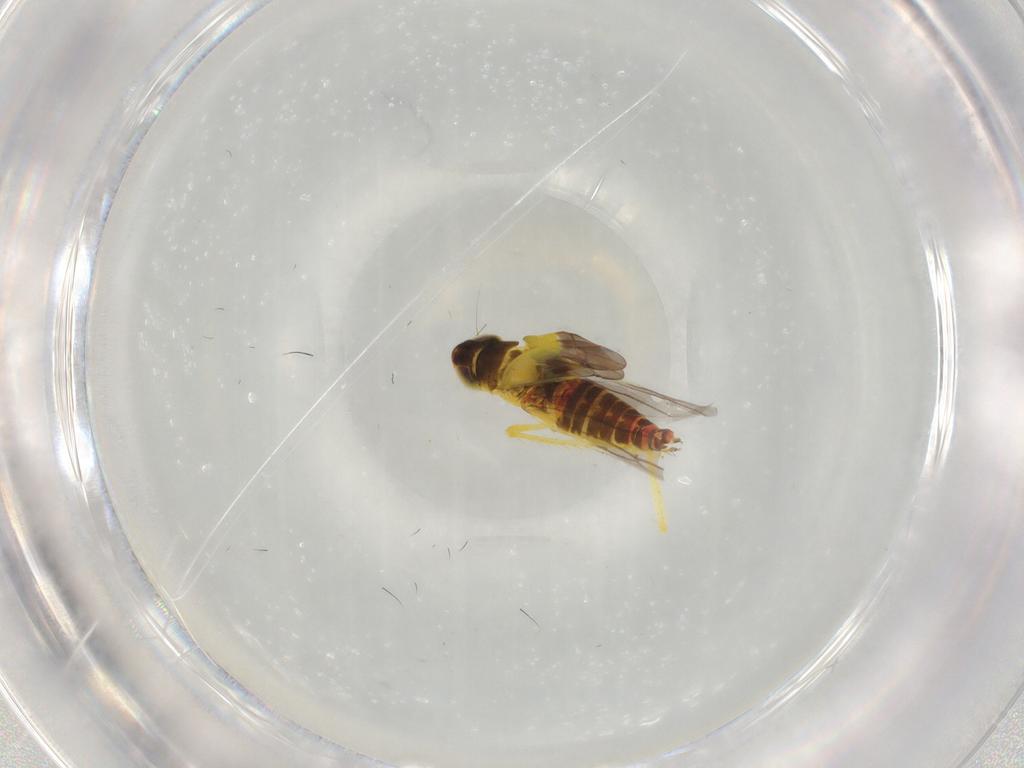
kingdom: Animalia
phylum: Arthropoda
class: Insecta
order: Hemiptera
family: Cicadellidae
